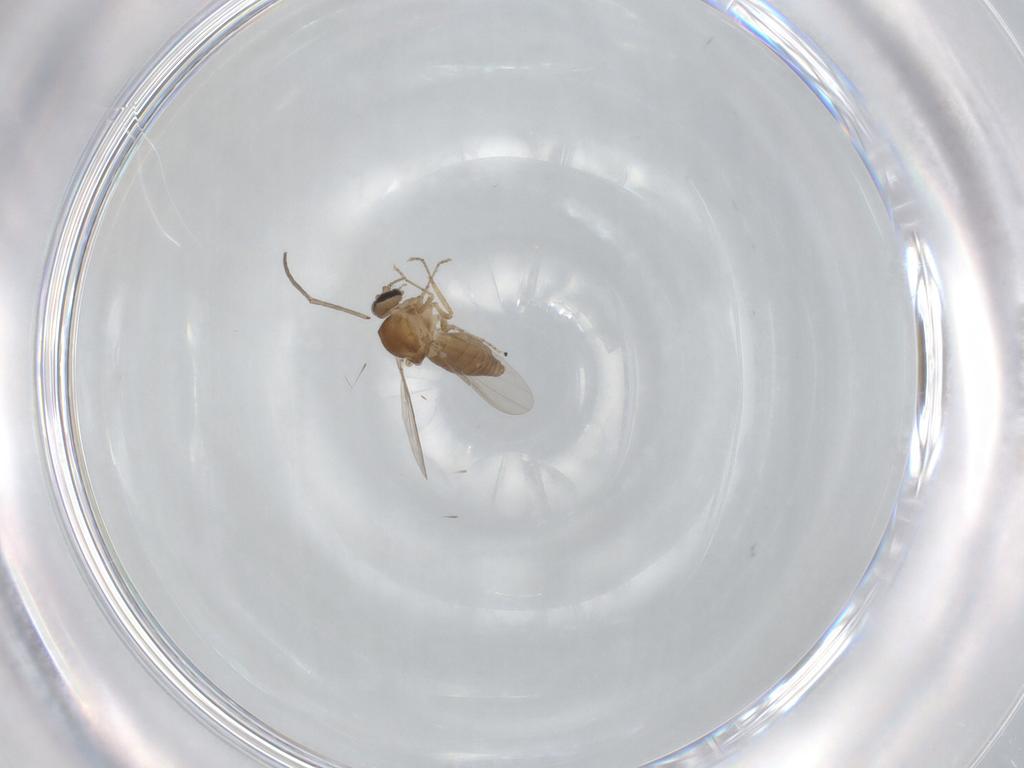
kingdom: Animalia
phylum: Arthropoda
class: Insecta
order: Diptera
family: Ceratopogonidae
